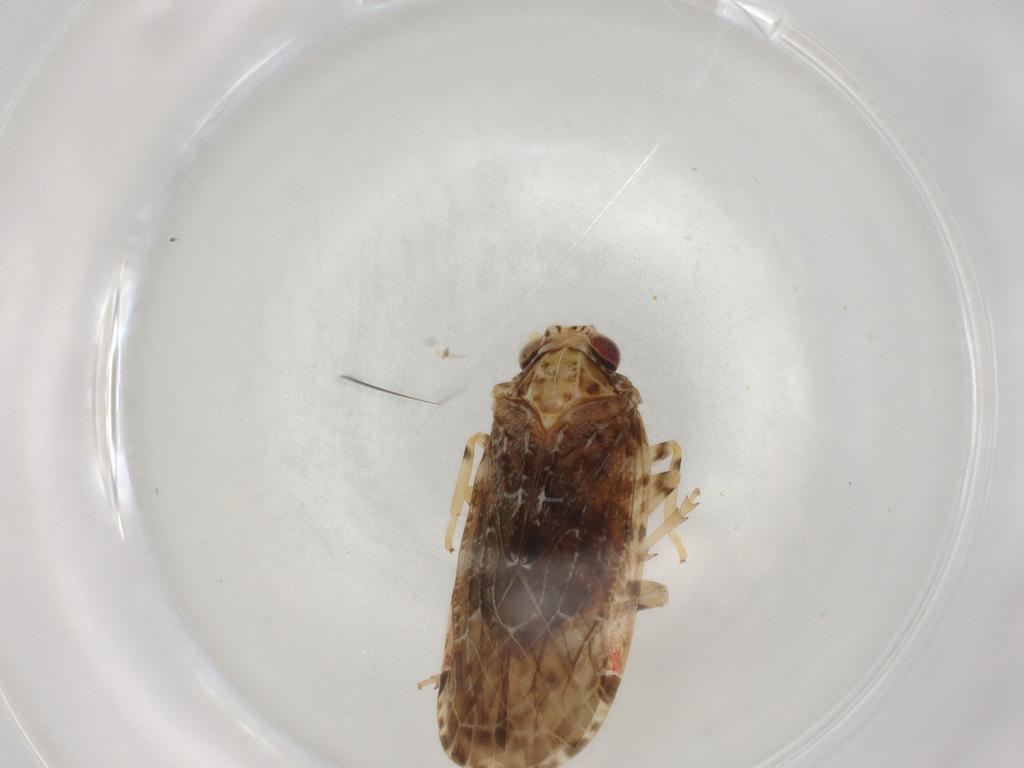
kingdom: Animalia
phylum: Arthropoda
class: Insecta
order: Hemiptera
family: Cicadellidae
